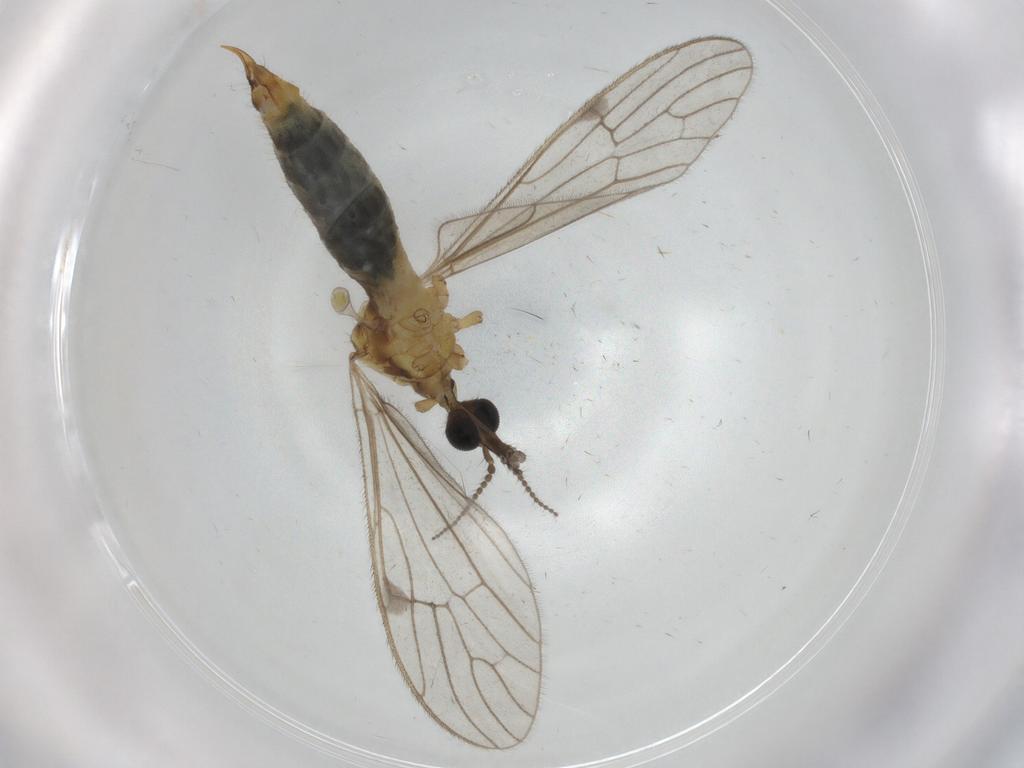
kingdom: Animalia
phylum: Arthropoda
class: Insecta
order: Diptera
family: Limoniidae
